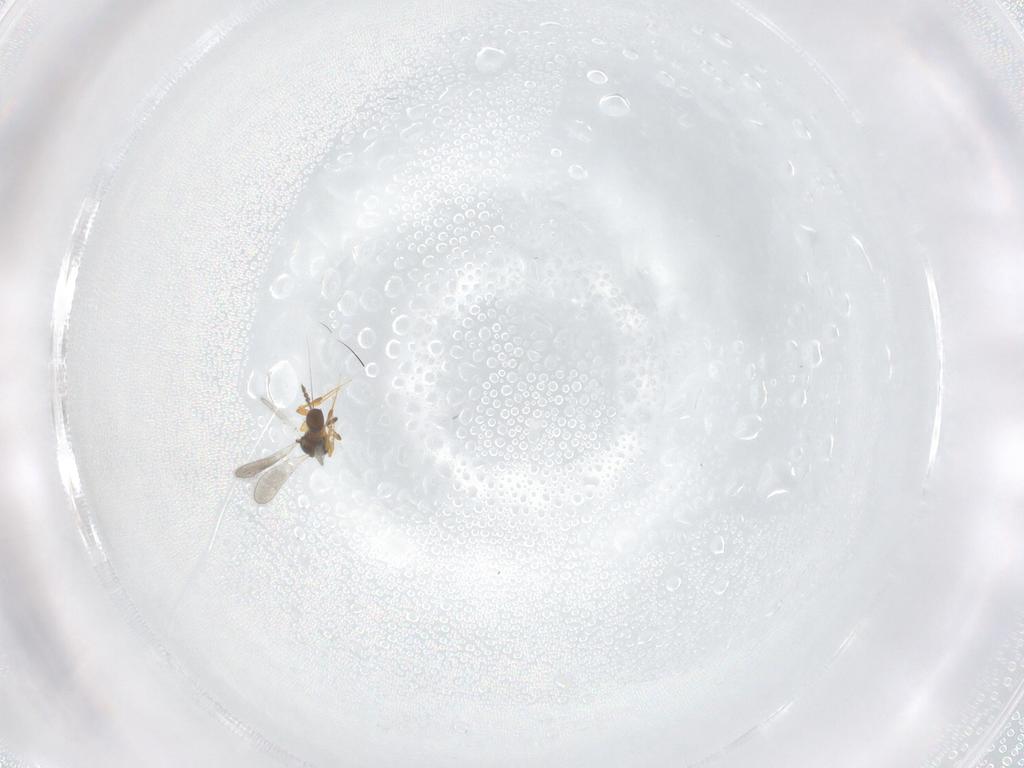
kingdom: Animalia
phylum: Arthropoda
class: Insecta
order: Hymenoptera
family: Platygastridae
